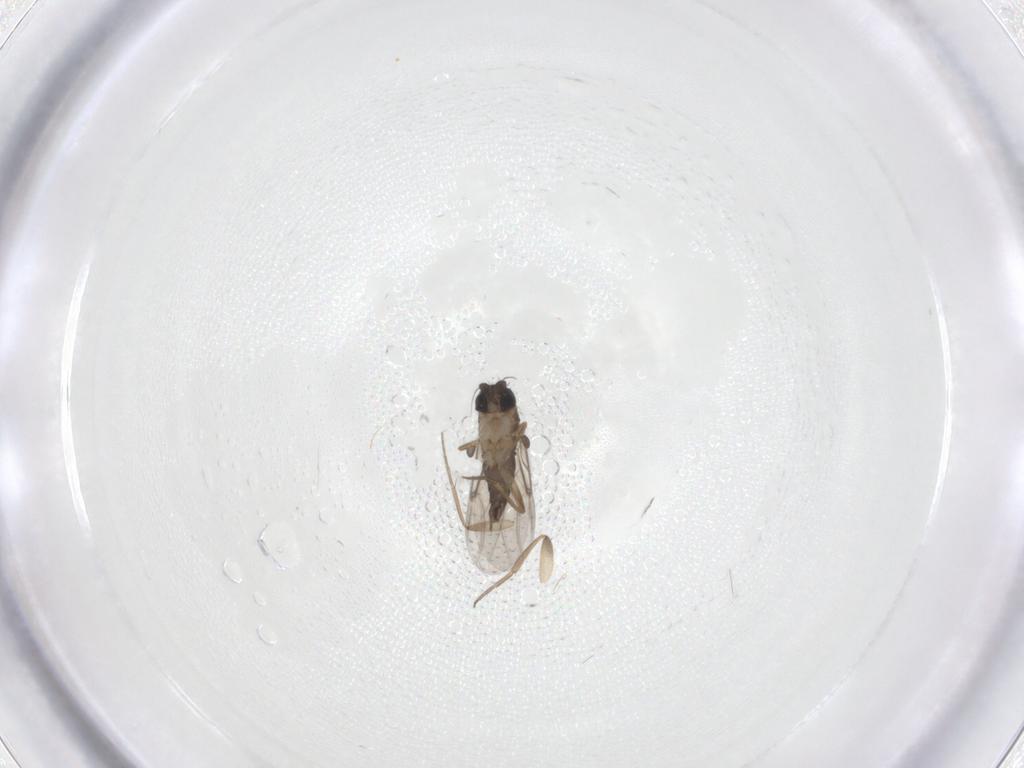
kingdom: Animalia
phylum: Arthropoda
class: Insecta
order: Diptera
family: Phoridae
